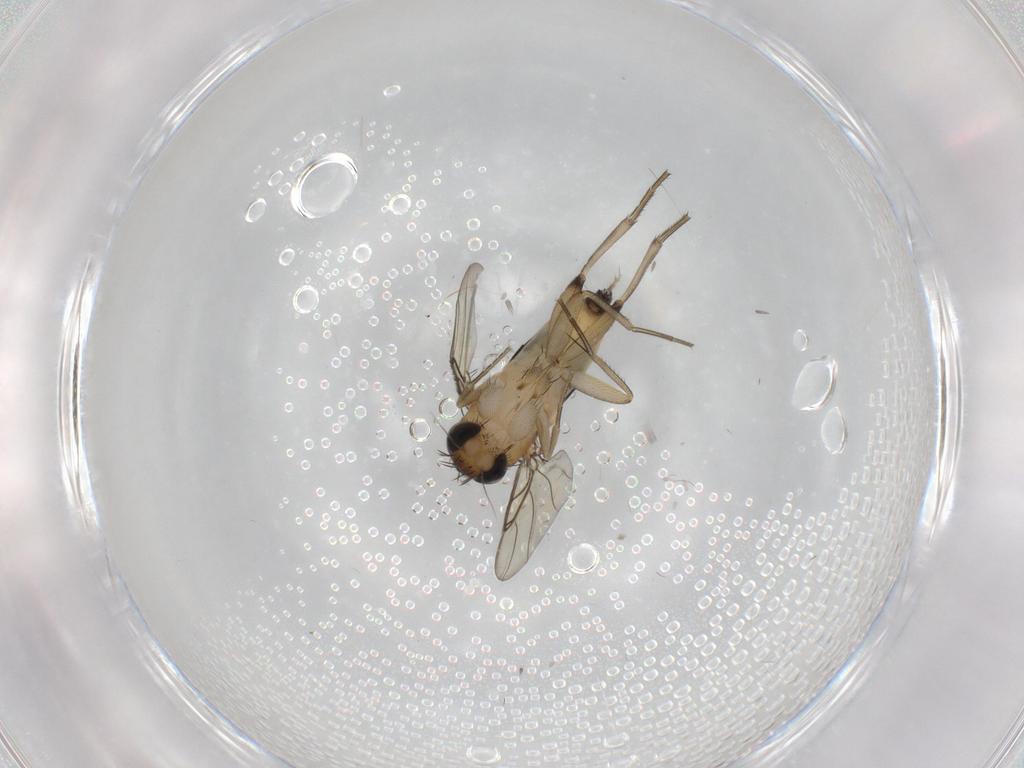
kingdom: Animalia
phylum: Arthropoda
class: Insecta
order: Diptera
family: Phoridae
